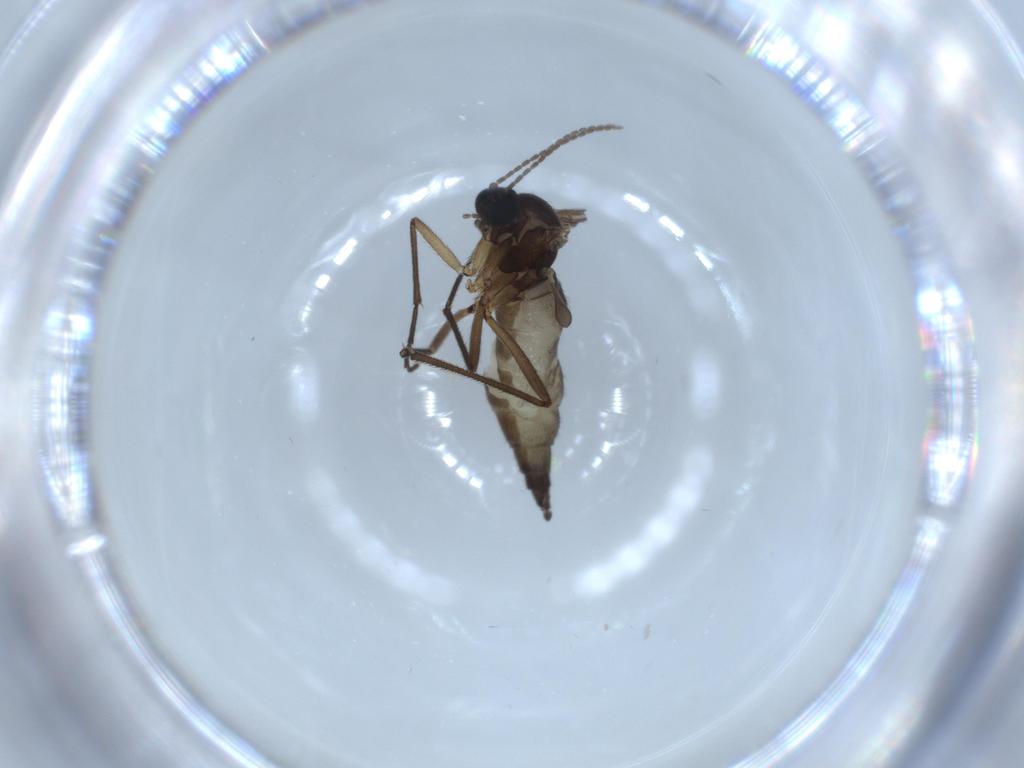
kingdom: Animalia
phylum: Arthropoda
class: Insecta
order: Diptera
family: Sciaridae
